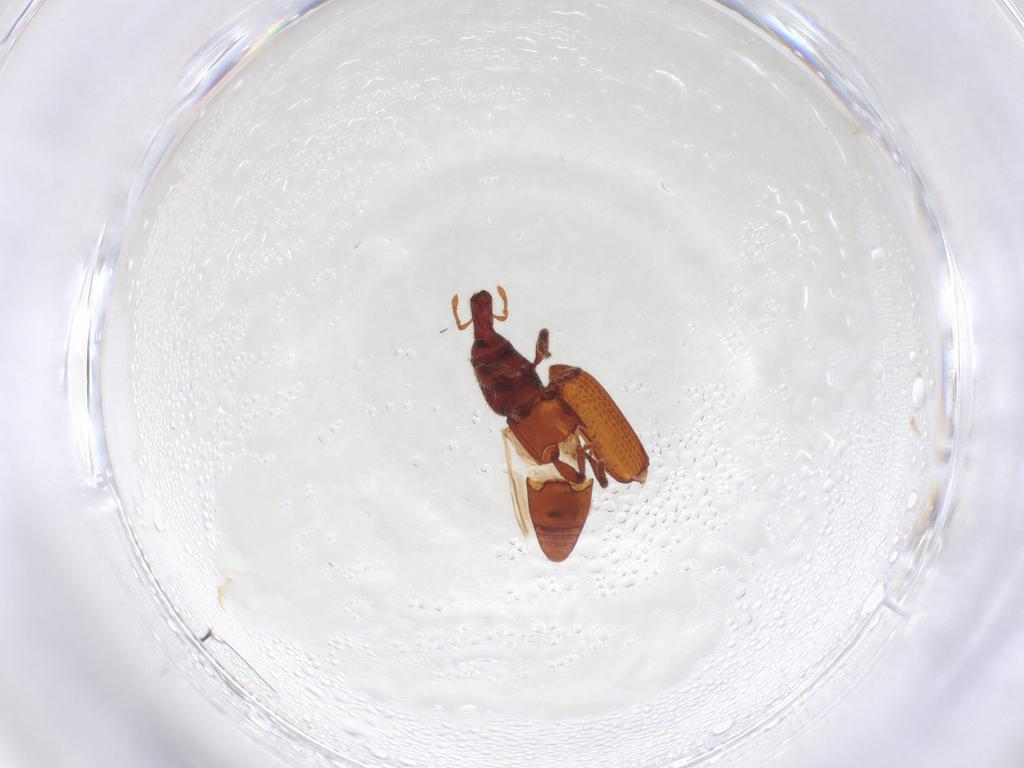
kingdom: Animalia
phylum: Arthropoda
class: Insecta
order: Coleoptera
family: Curculionidae
